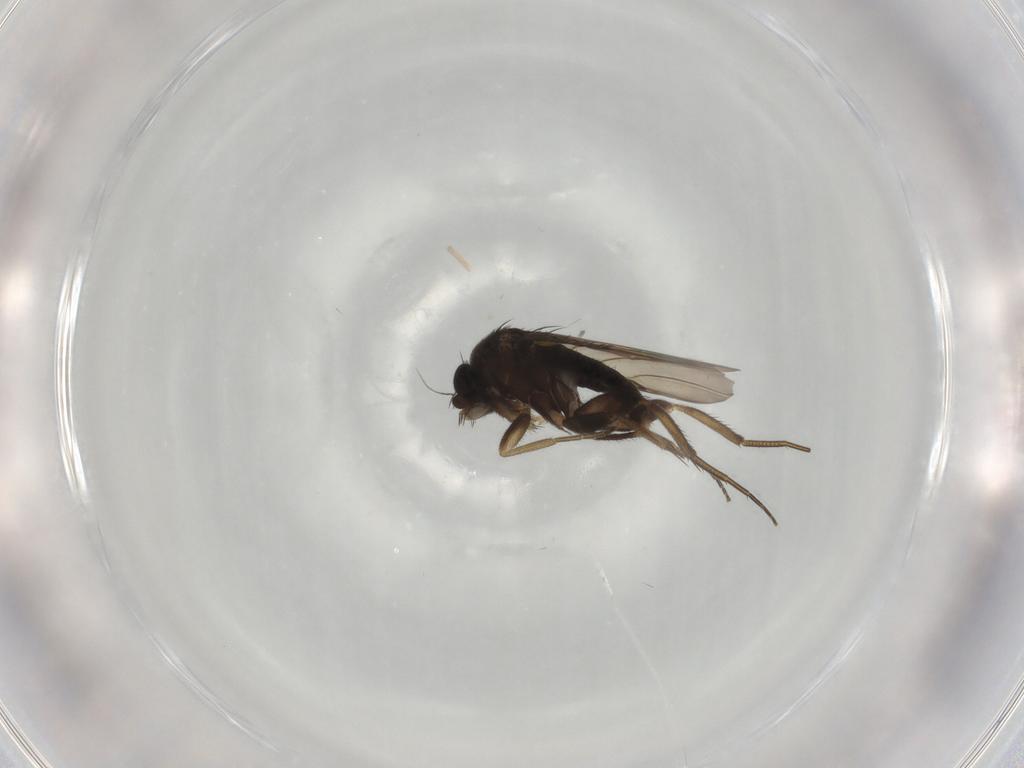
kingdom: Animalia
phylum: Arthropoda
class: Insecta
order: Diptera
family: Phoridae
